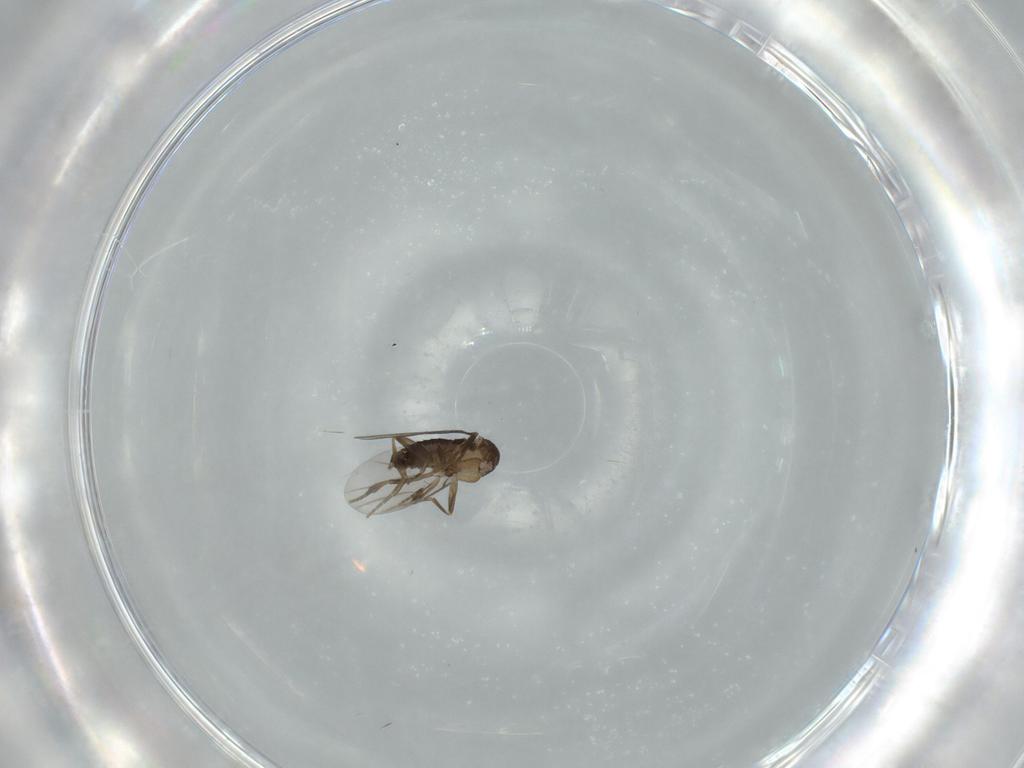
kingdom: Animalia
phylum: Arthropoda
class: Insecta
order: Diptera
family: Phoridae
